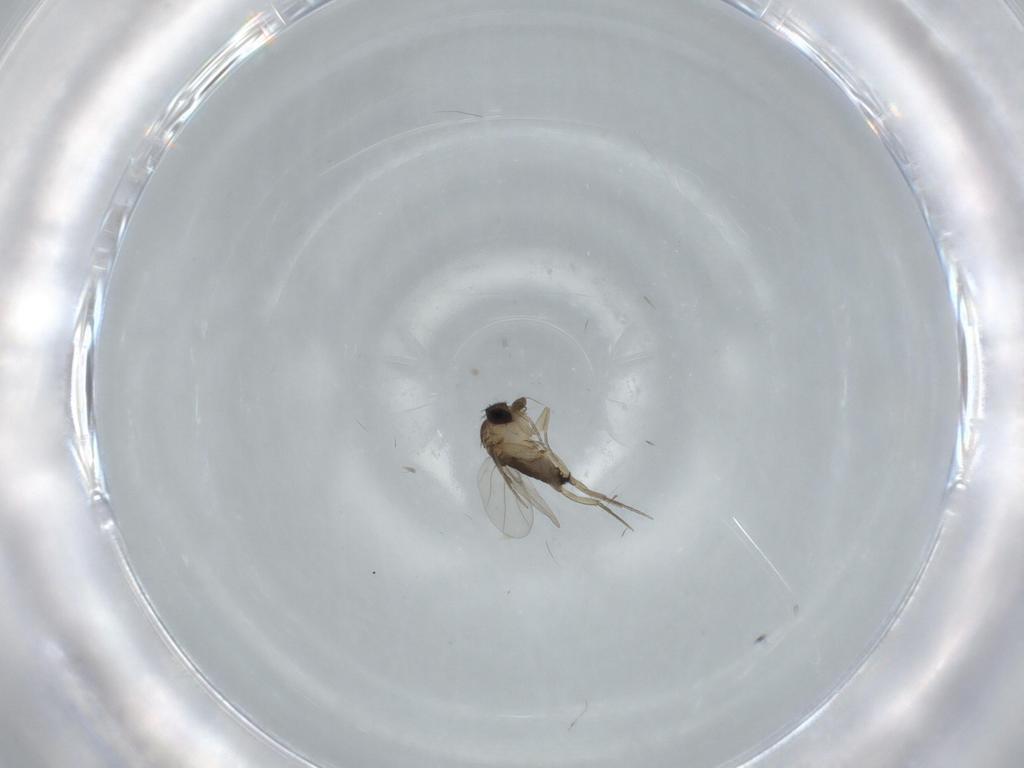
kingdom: Animalia
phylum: Arthropoda
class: Insecta
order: Diptera
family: Phoridae
